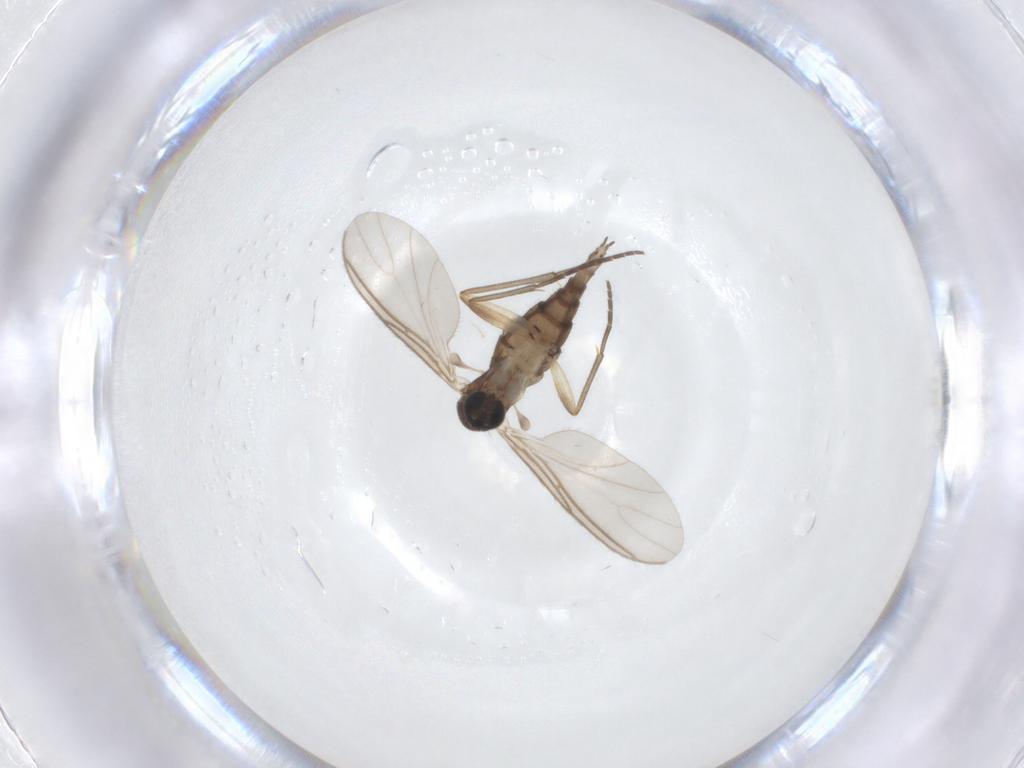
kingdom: Animalia
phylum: Arthropoda
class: Insecta
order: Diptera
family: Sciaridae
